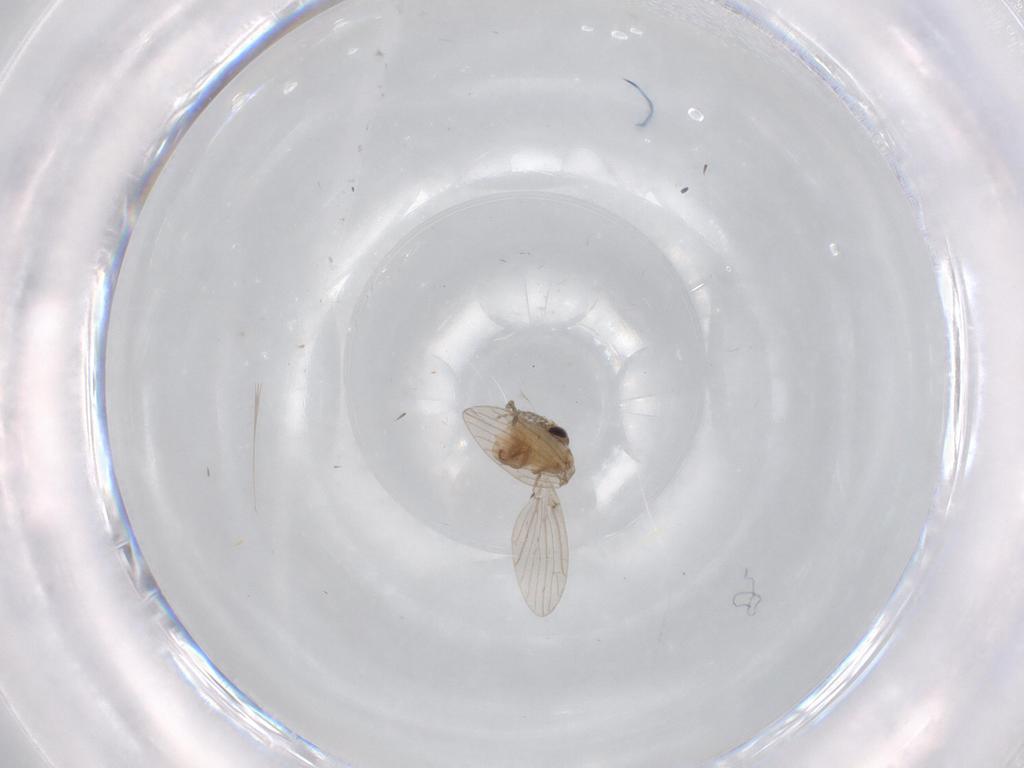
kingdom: Animalia
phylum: Arthropoda
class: Insecta
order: Diptera
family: Psychodidae
